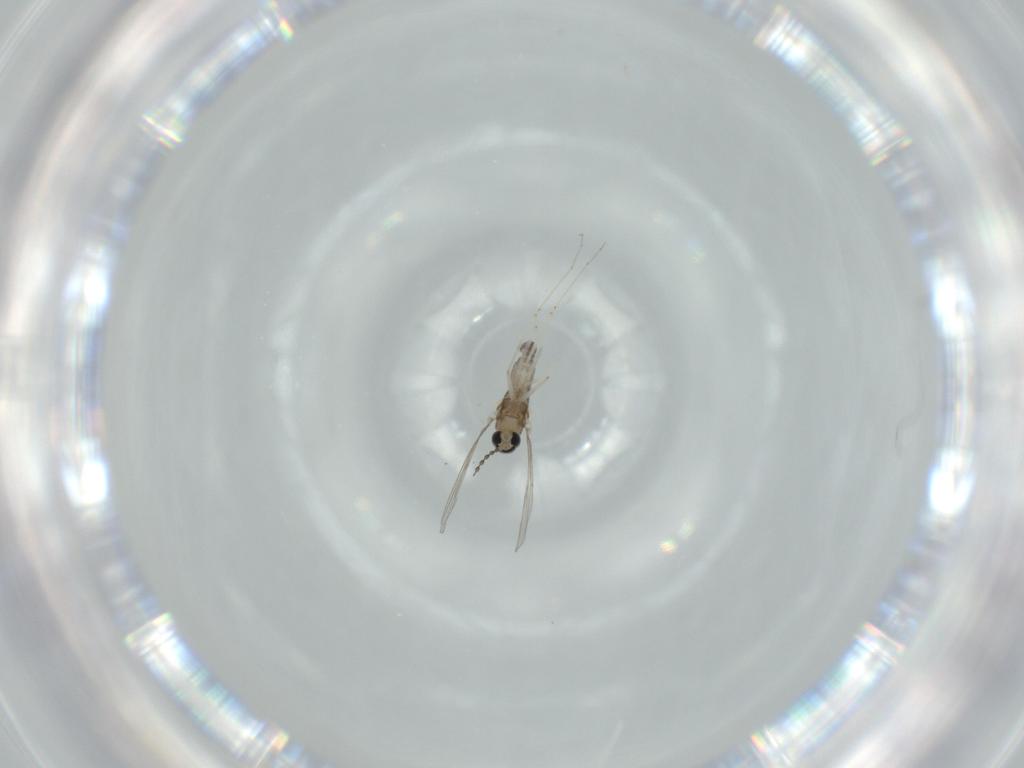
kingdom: Animalia
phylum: Arthropoda
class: Insecta
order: Diptera
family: Cecidomyiidae
